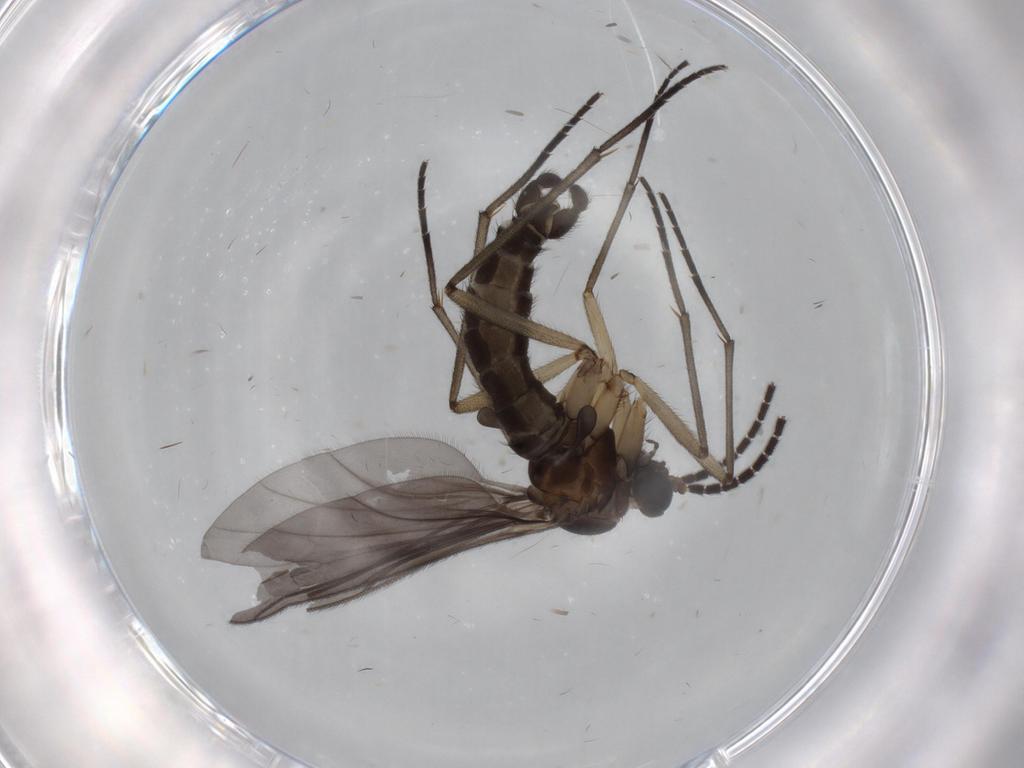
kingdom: Animalia
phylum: Arthropoda
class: Insecta
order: Diptera
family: Sciaridae
